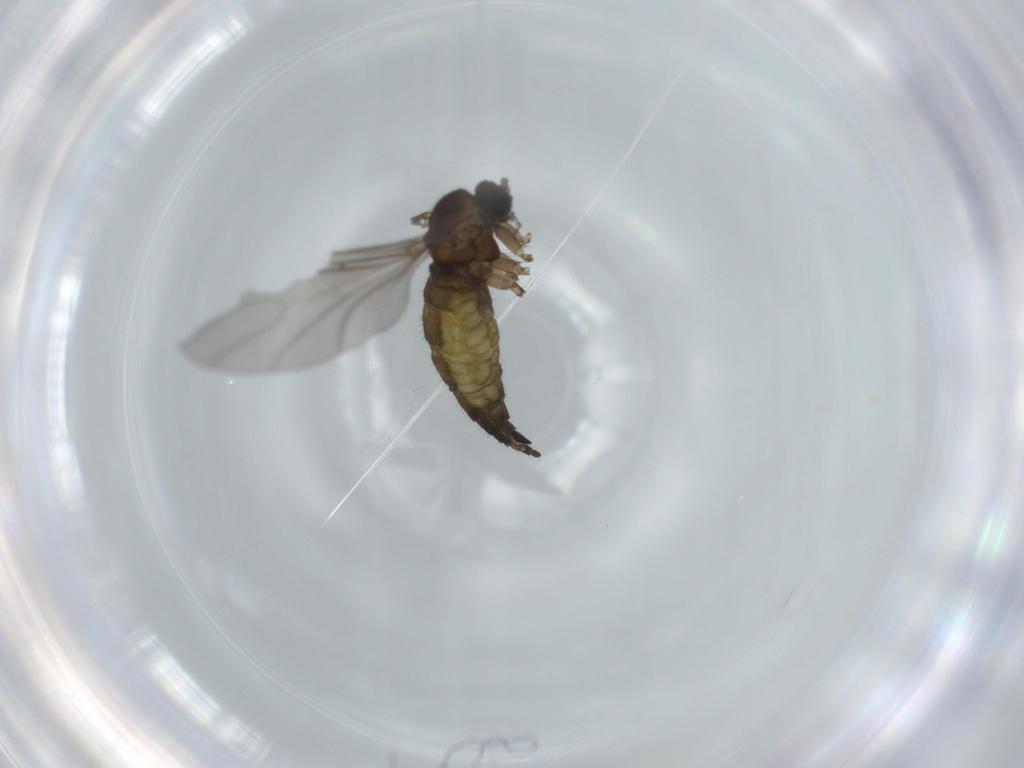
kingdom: Animalia
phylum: Arthropoda
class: Insecta
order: Diptera
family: Sciaridae
